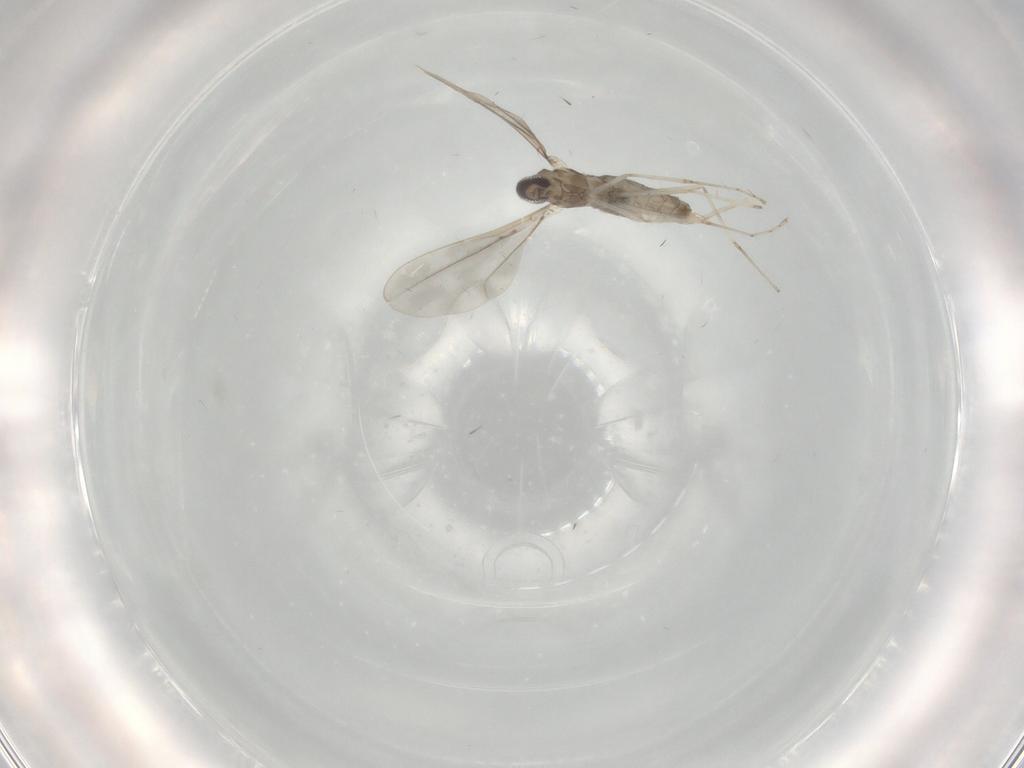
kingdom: Animalia
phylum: Arthropoda
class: Insecta
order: Diptera
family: Cecidomyiidae
